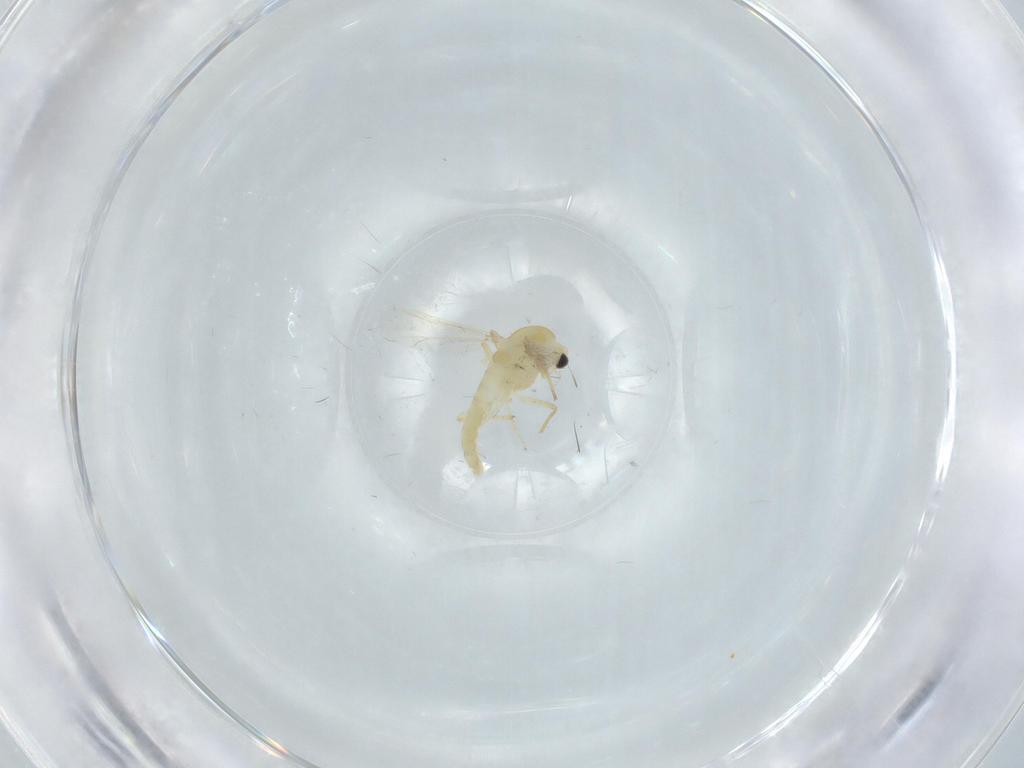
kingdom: Animalia
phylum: Arthropoda
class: Insecta
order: Diptera
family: Chironomidae
